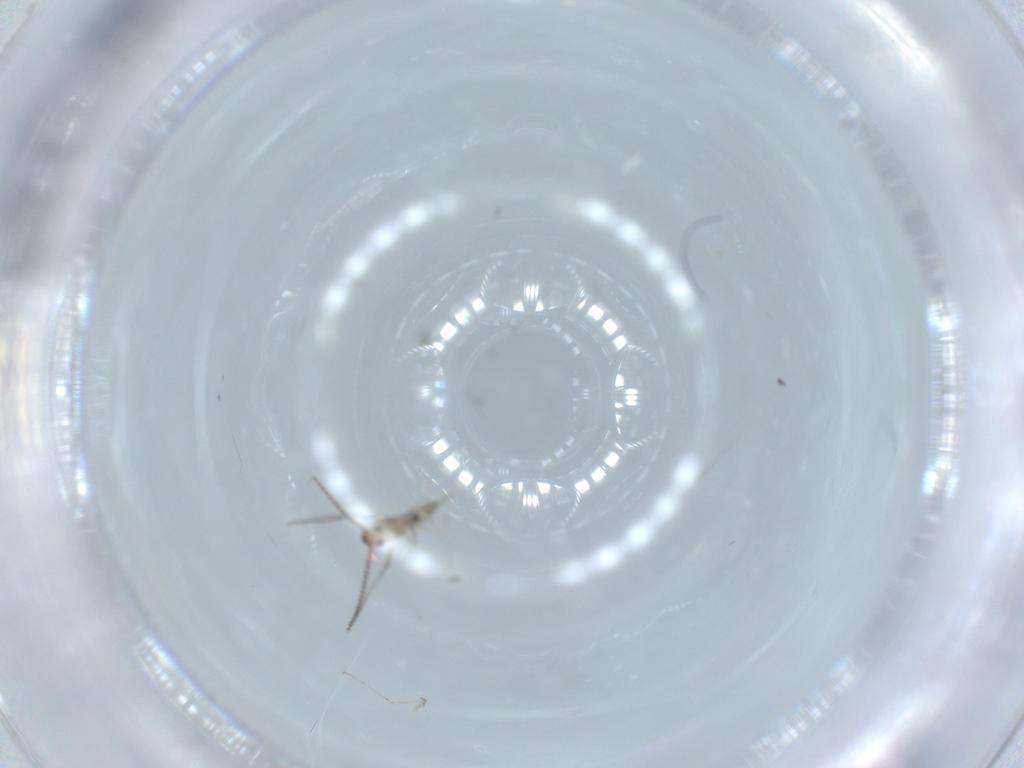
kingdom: Animalia
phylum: Arthropoda
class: Insecta
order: Diptera
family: Cecidomyiidae
